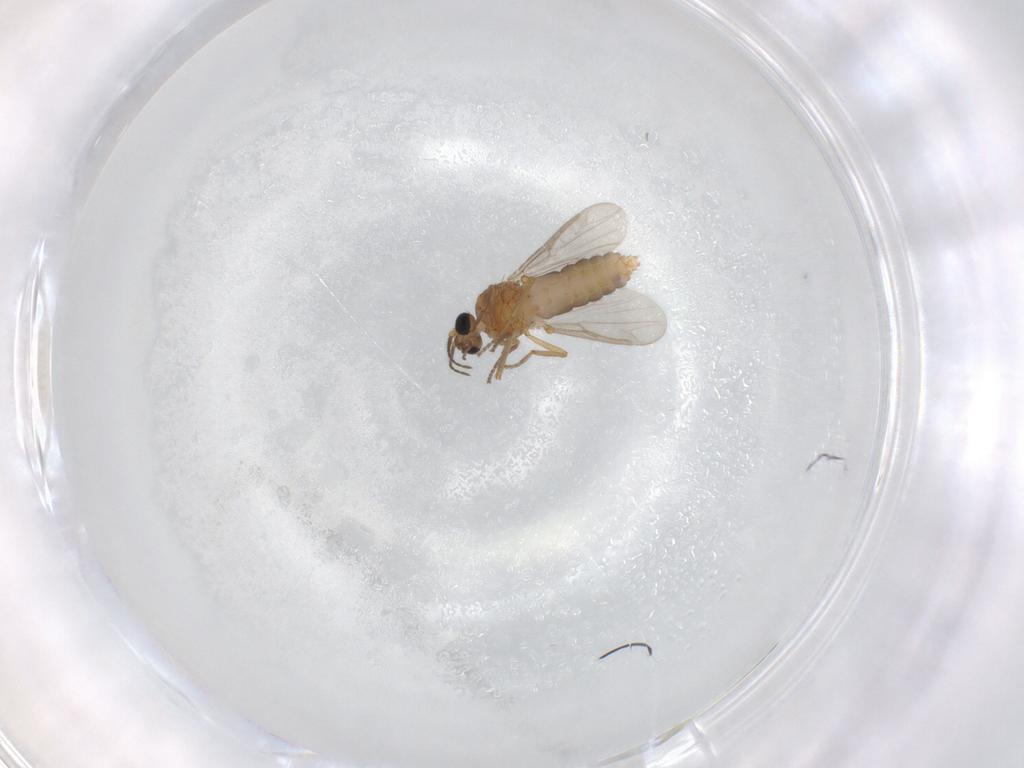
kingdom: Animalia
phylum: Arthropoda
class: Insecta
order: Diptera
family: Ceratopogonidae
